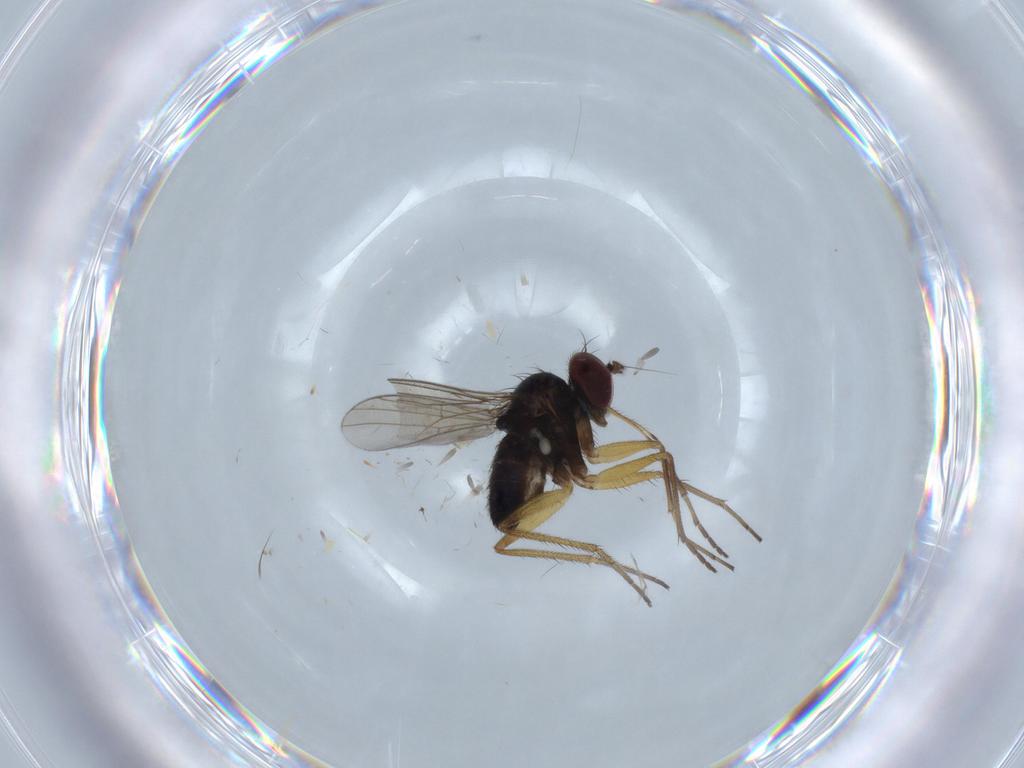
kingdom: Animalia
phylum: Arthropoda
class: Insecta
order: Diptera
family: Dolichopodidae
